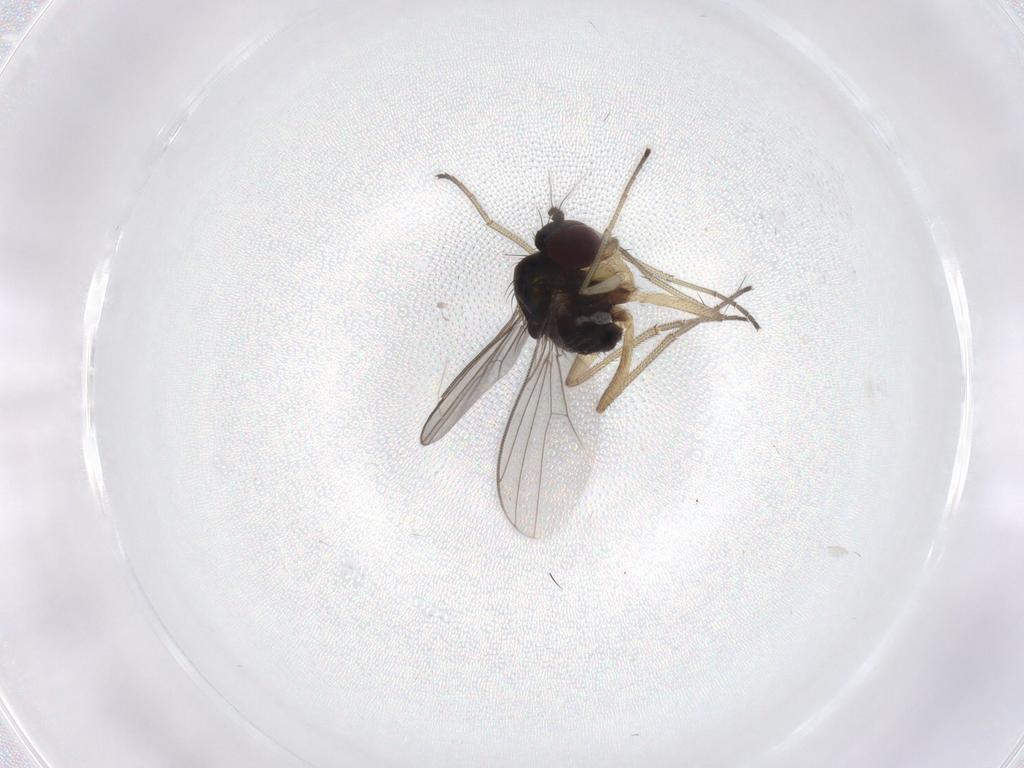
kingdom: Animalia
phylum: Arthropoda
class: Insecta
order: Diptera
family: Dolichopodidae
